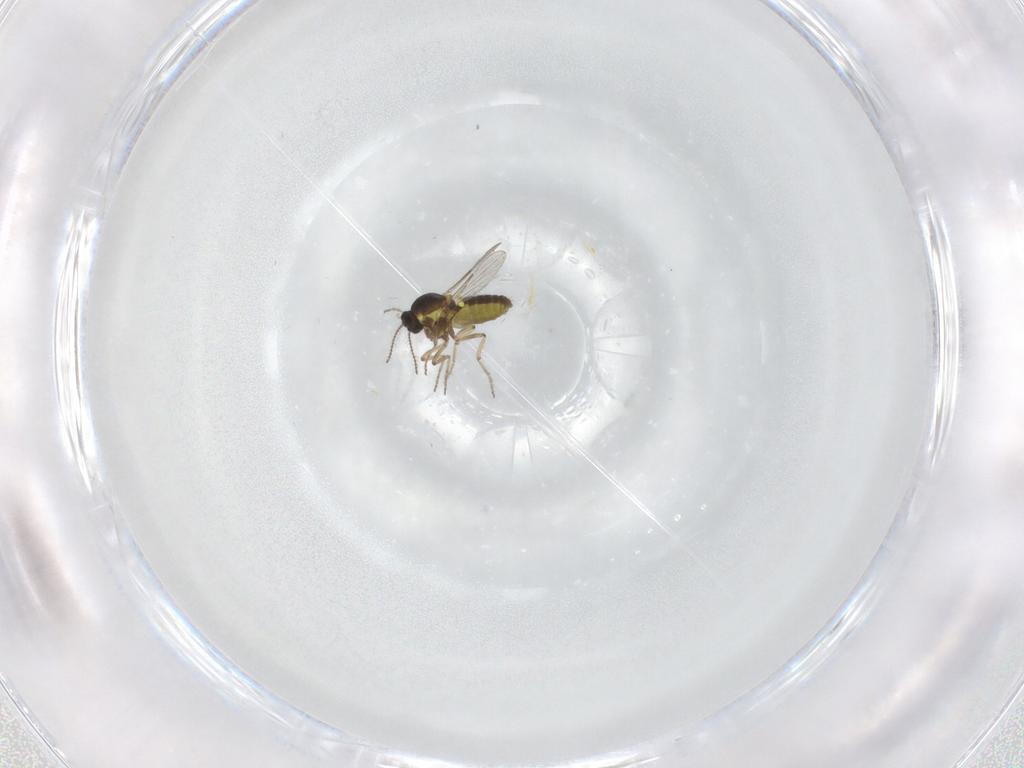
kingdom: Animalia
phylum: Arthropoda
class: Insecta
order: Diptera
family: Ceratopogonidae
